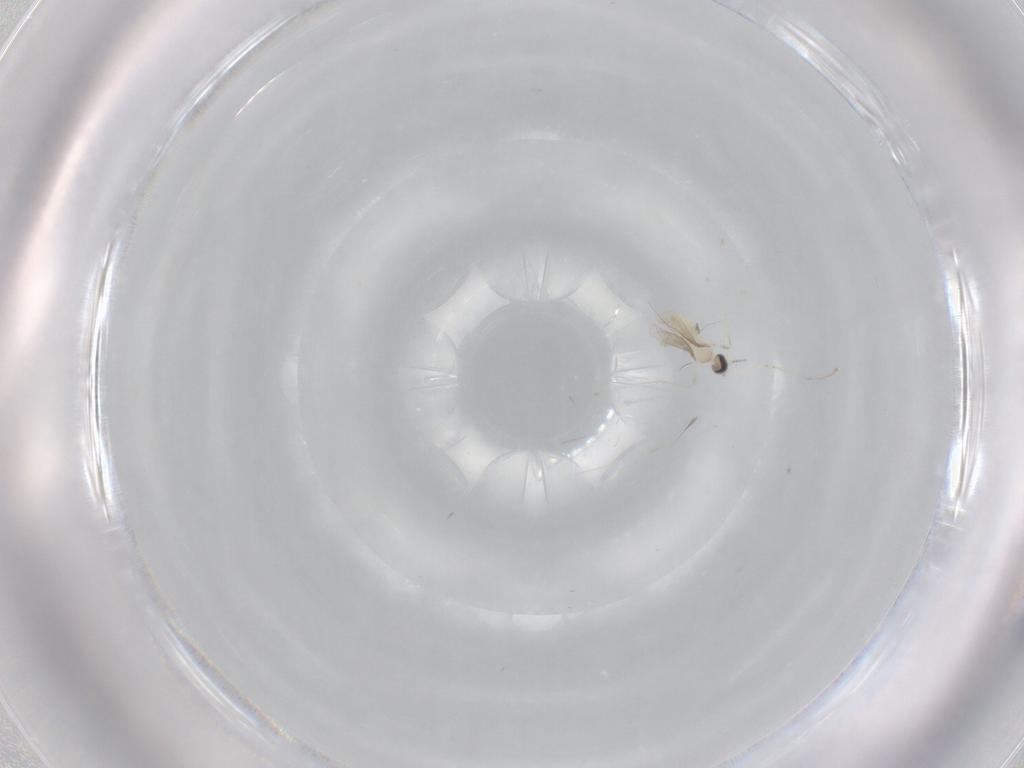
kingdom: Animalia
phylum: Arthropoda
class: Insecta
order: Diptera
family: Cecidomyiidae
